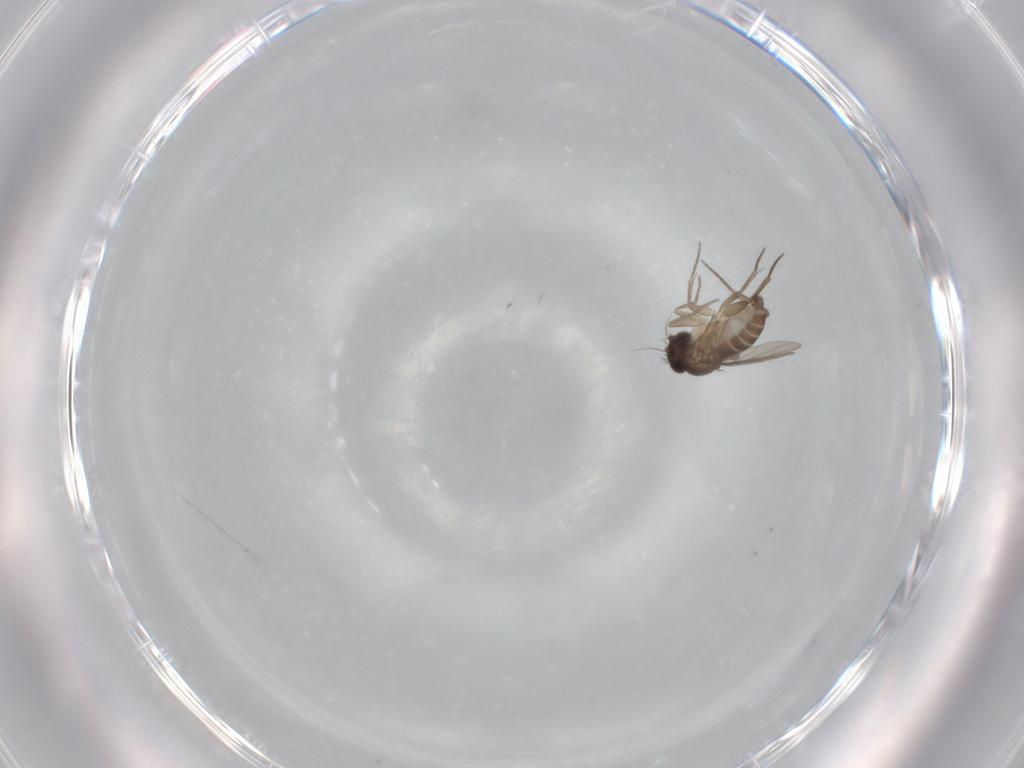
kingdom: Animalia
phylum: Arthropoda
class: Insecta
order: Diptera
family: Phoridae
